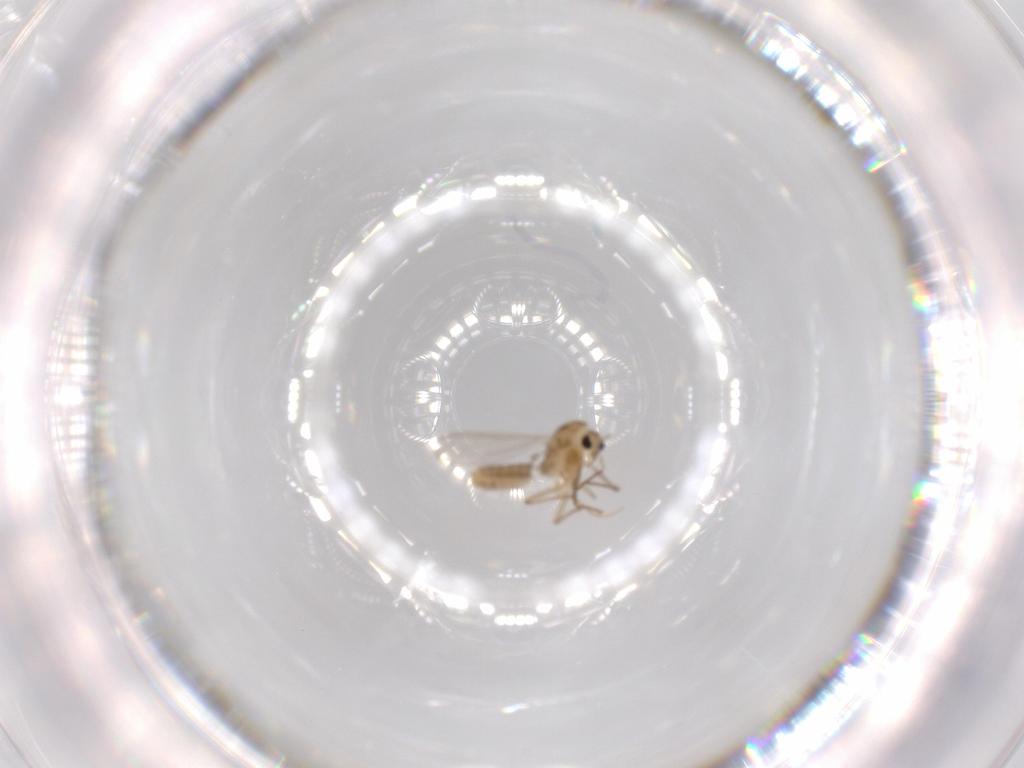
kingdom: Animalia
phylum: Arthropoda
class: Insecta
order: Diptera
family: Chironomidae
